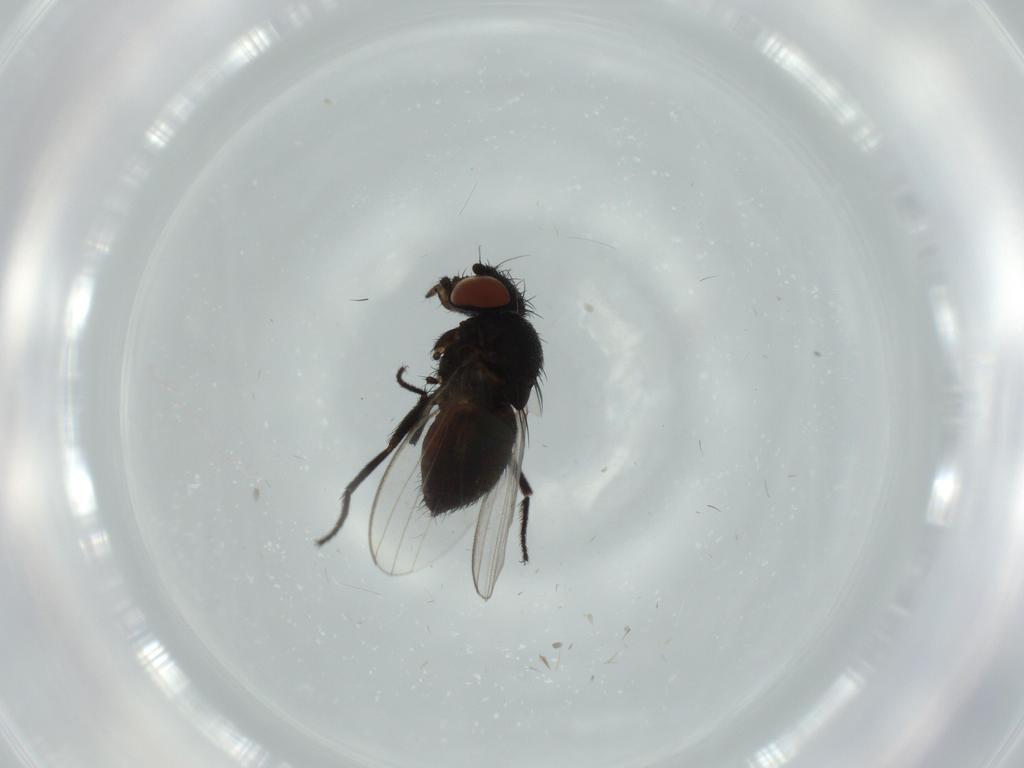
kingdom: Animalia
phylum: Arthropoda
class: Insecta
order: Diptera
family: Milichiidae
